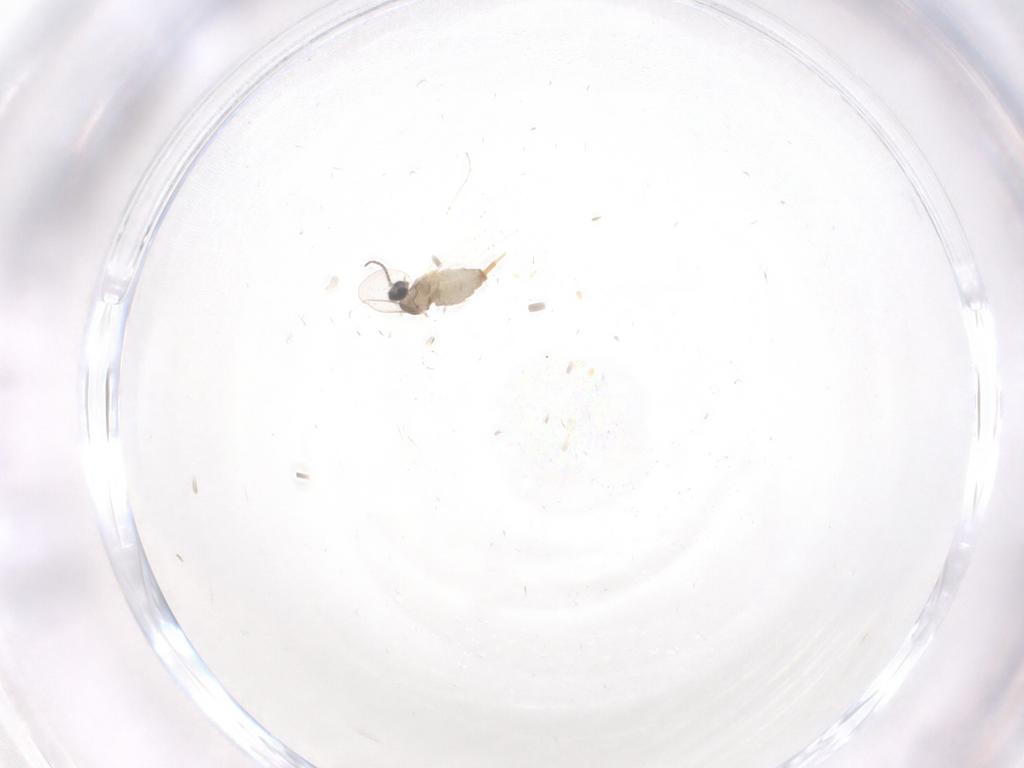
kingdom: Animalia
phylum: Arthropoda
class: Insecta
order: Diptera
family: Cecidomyiidae
